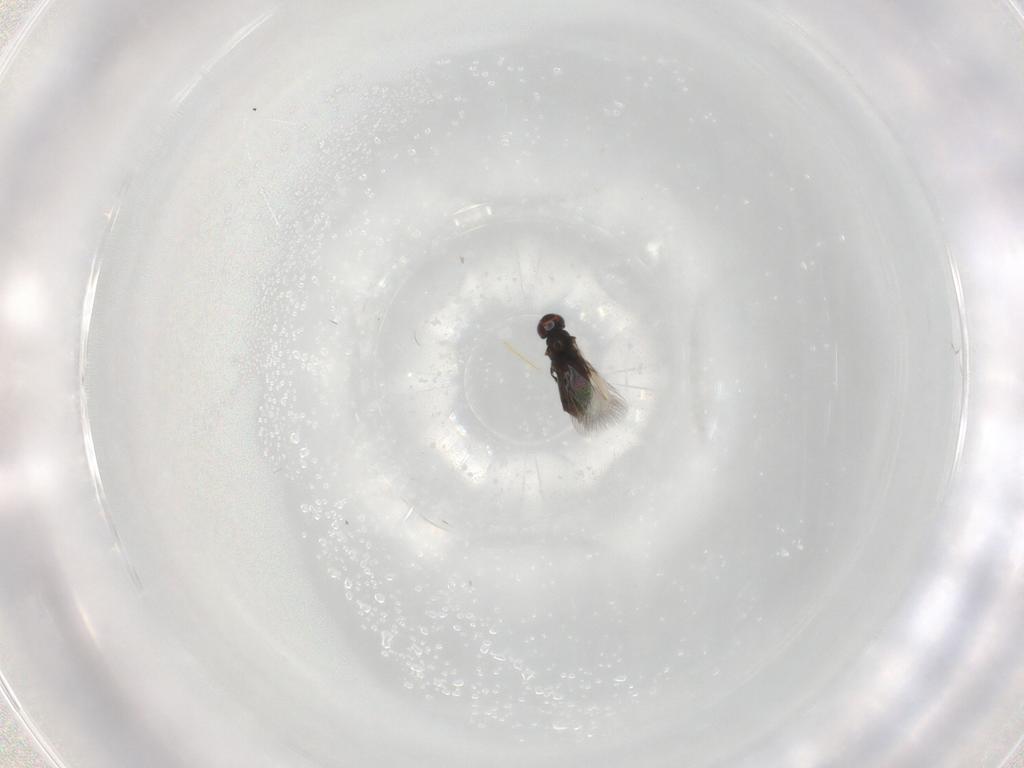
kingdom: Animalia
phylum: Arthropoda
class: Insecta
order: Hymenoptera
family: Signiphoridae
